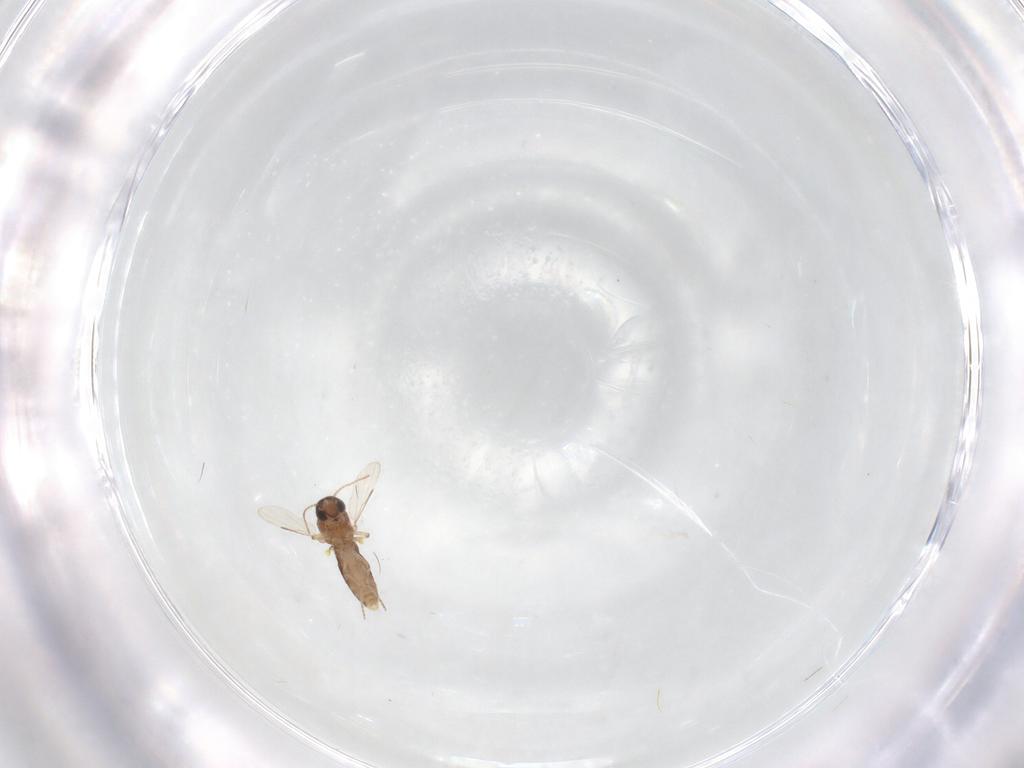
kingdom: Animalia
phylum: Arthropoda
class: Insecta
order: Diptera
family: Ceratopogonidae
